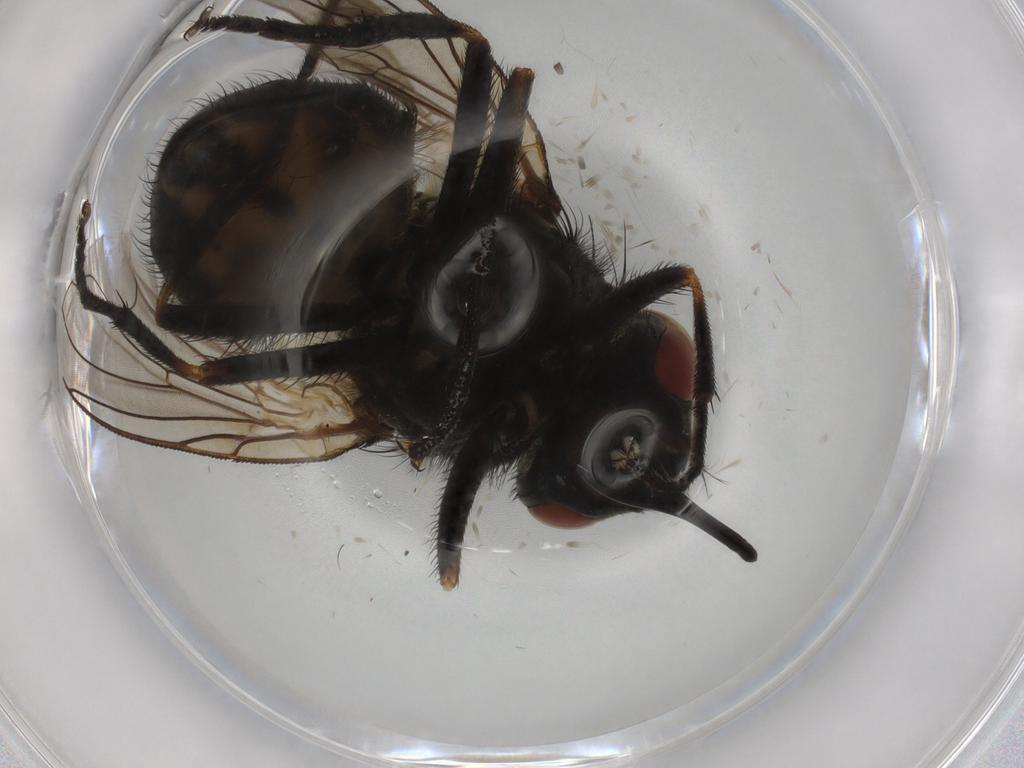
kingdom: Animalia
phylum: Arthropoda
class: Insecta
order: Diptera
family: Muscidae
